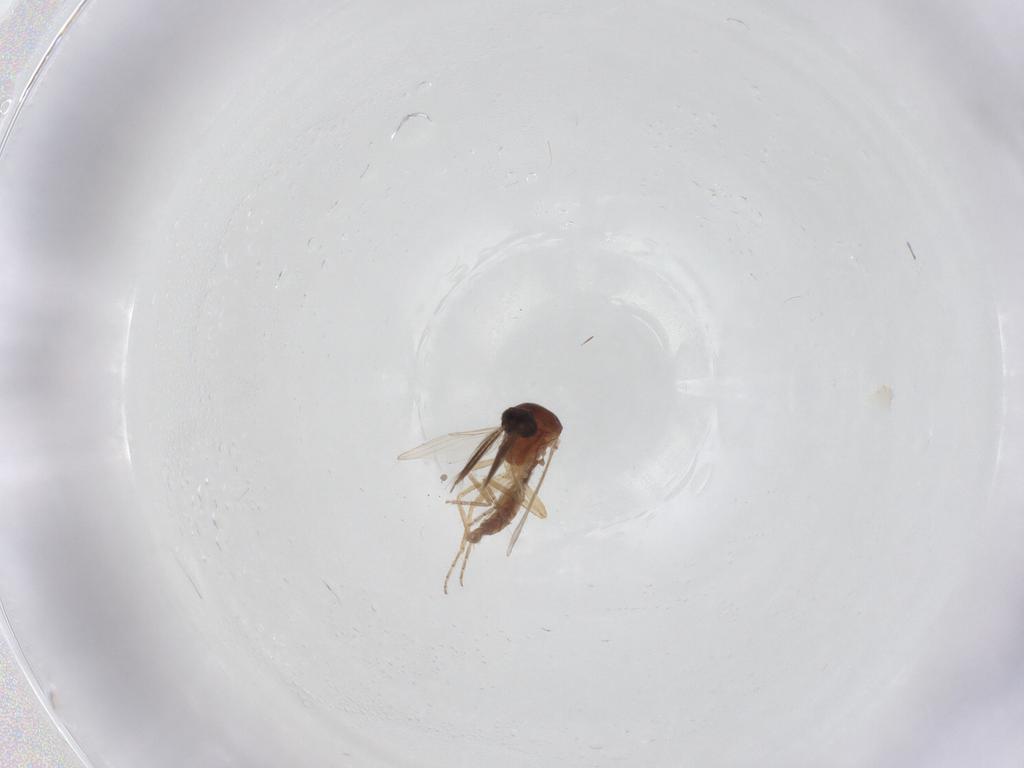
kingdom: Animalia
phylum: Arthropoda
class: Insecta
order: Diptera
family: Ceratopogonidae
